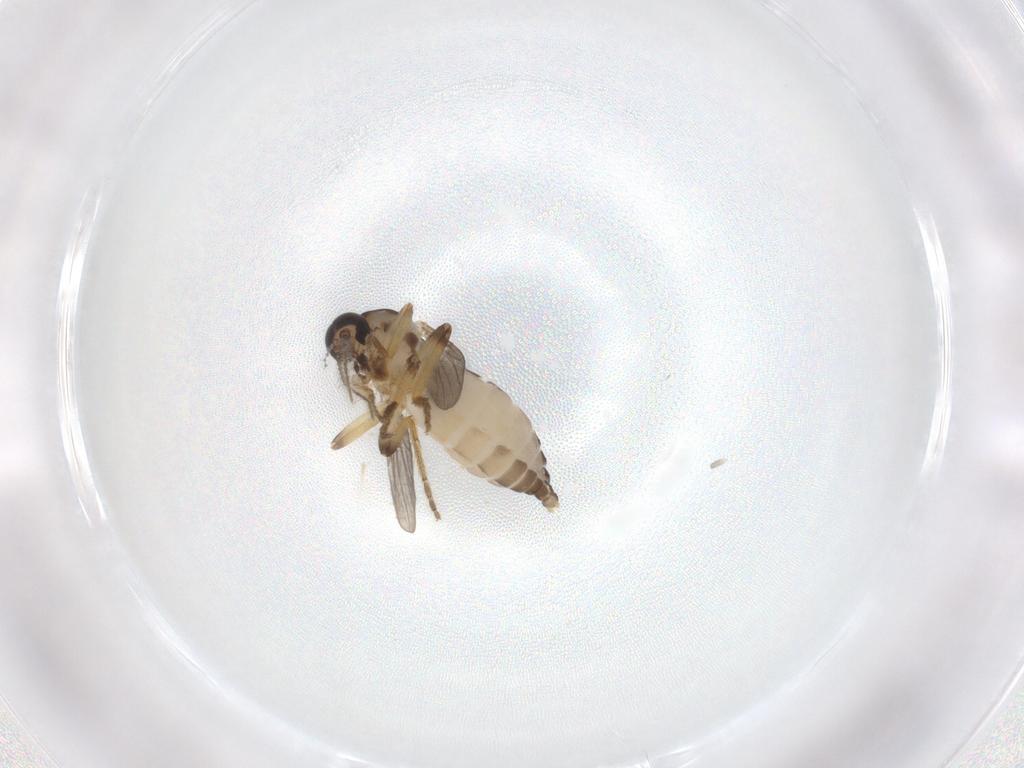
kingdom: Animalia
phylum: Arthropoda
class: Insecta
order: Diptera
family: Ceratopogonidae
